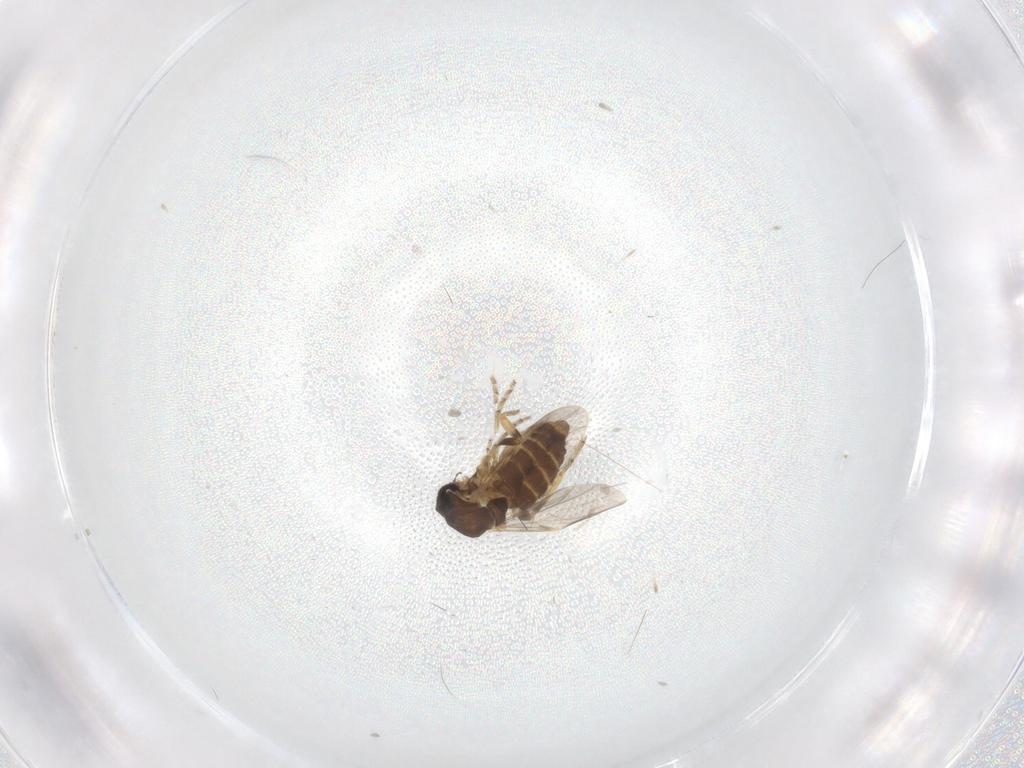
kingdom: Animalia
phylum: Arthropoda
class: Insecta
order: Diptera
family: Ceratopogonidae
